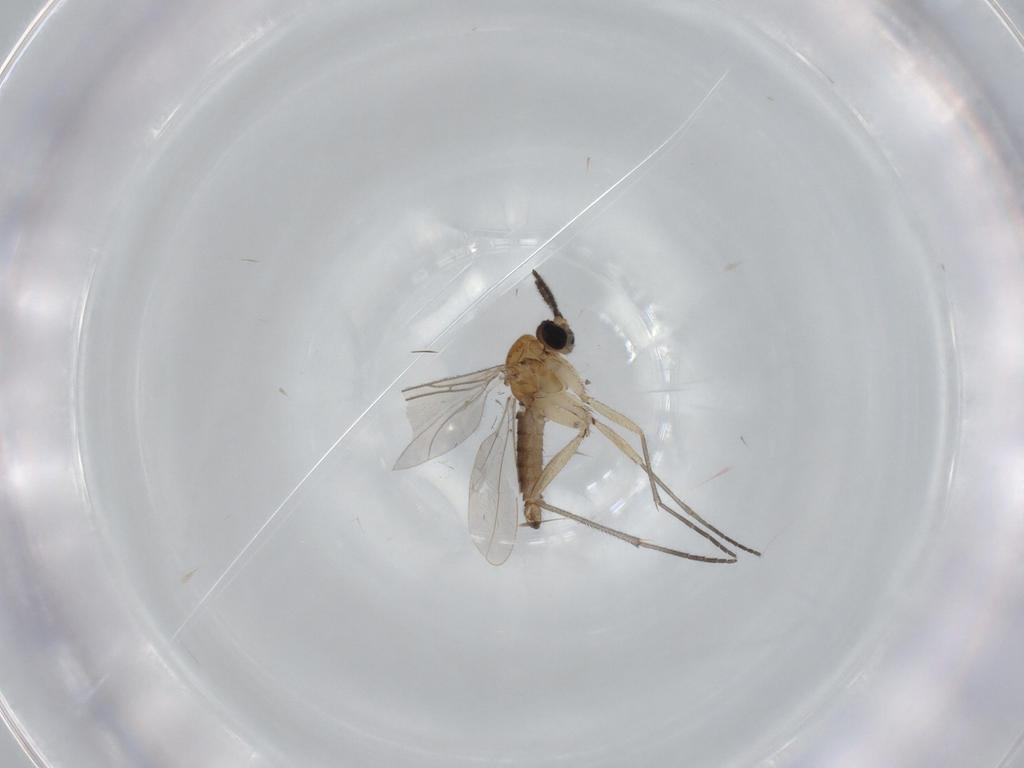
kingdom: Animalia
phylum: Arthropoda
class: Insecta
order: Diptera
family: Sciaridae
